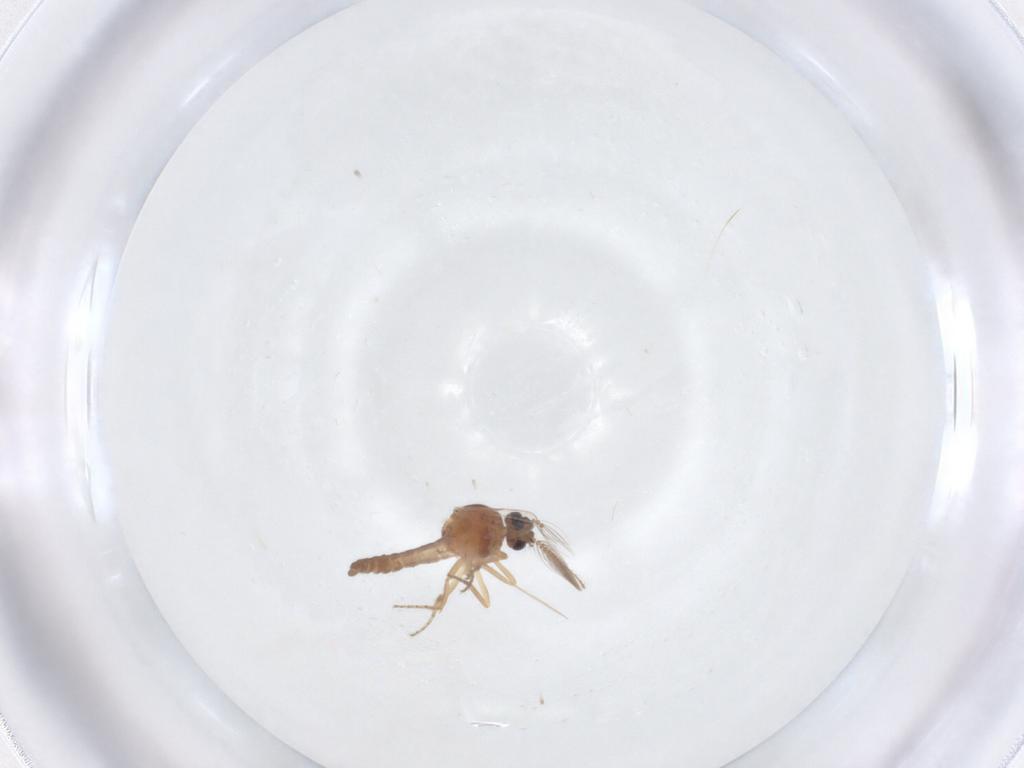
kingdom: Animalia
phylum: Arthropoda
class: Insecta
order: Diptera
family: Ceratopogonidae
